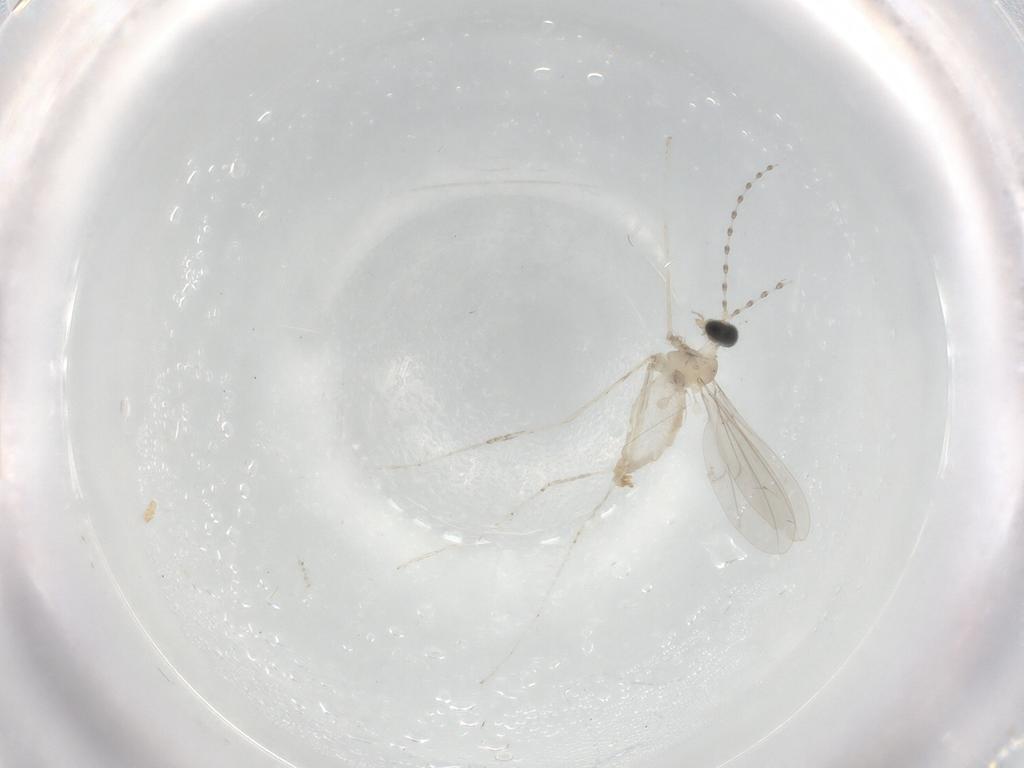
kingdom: Animalia
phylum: Arthropoda
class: Insecta
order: Diptera
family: Cecidomyiidae
